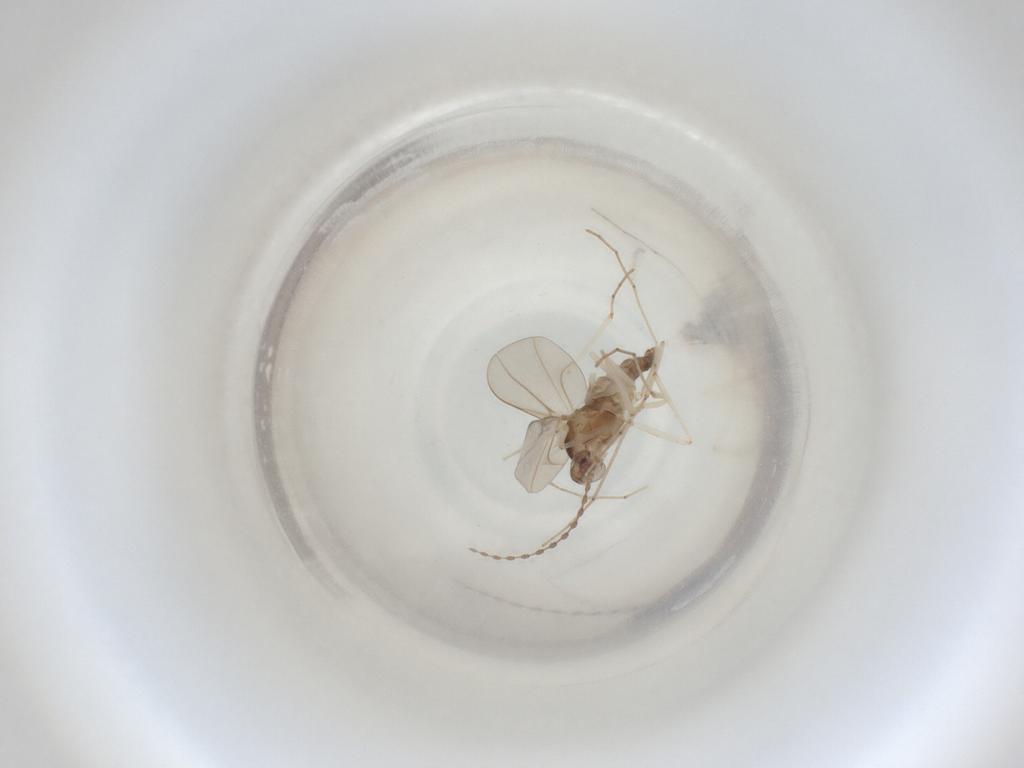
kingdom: Animalia
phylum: Arthropoda
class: Insecta
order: Diptera
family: Cecidomyiidae
